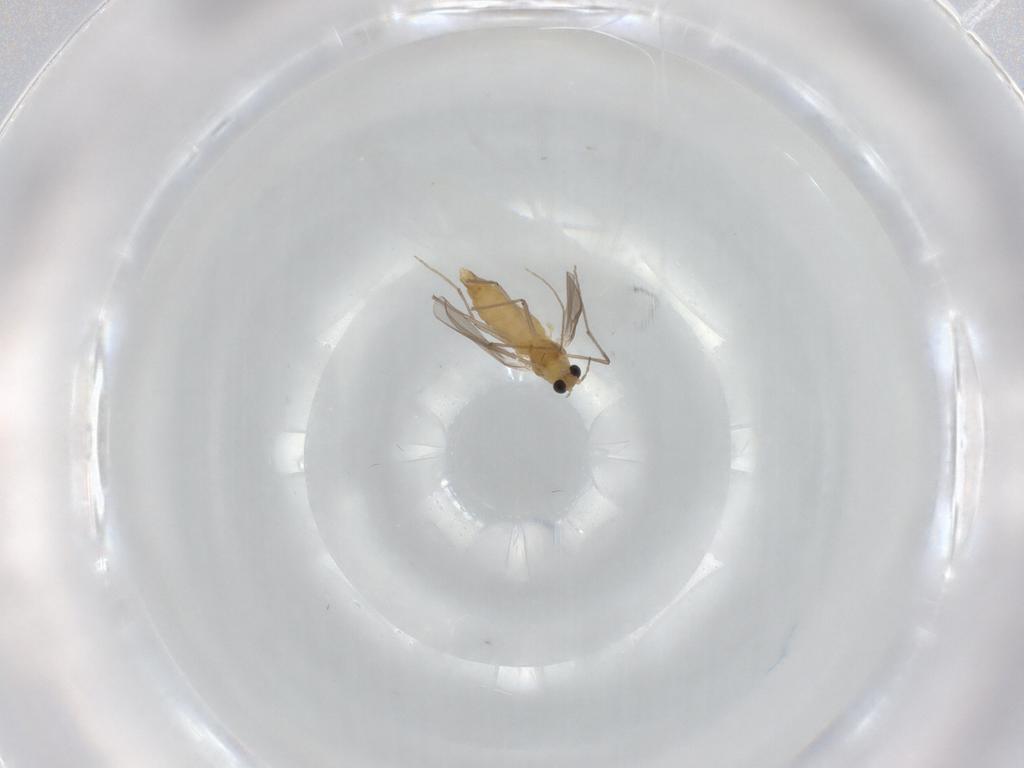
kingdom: Animalia
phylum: Arthropoda
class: Insecta
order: Diptera
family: Chironomidae
